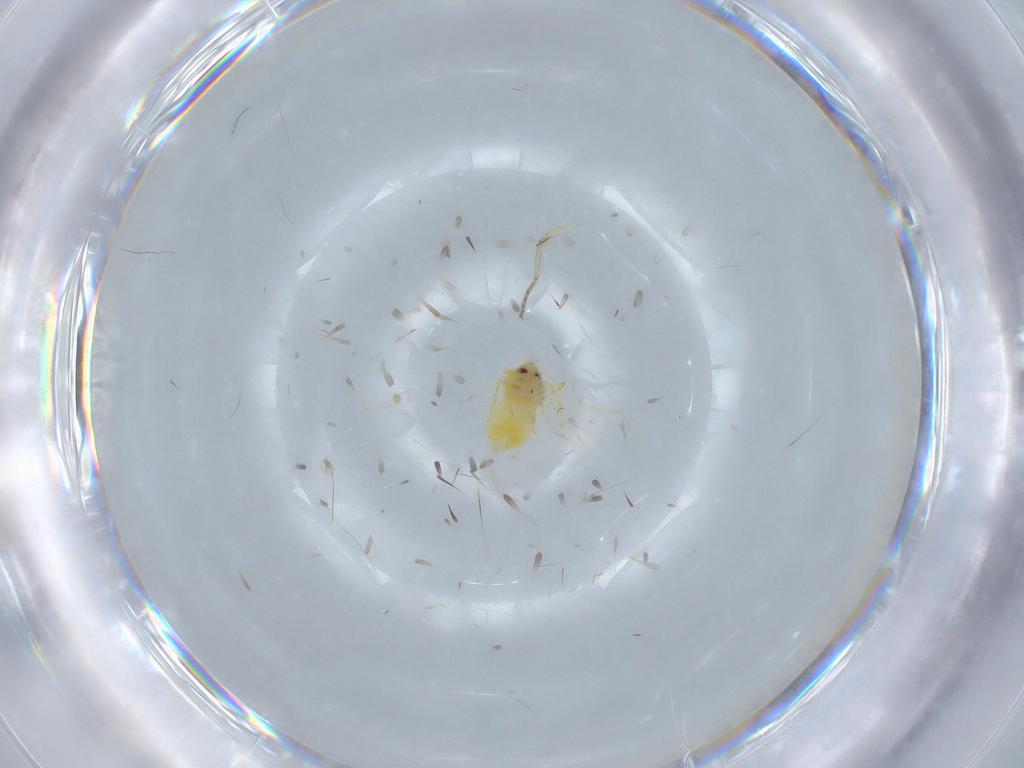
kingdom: Animalia
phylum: Arthropoda
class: Insecta
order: Hemiptera
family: Aleyrodidae
